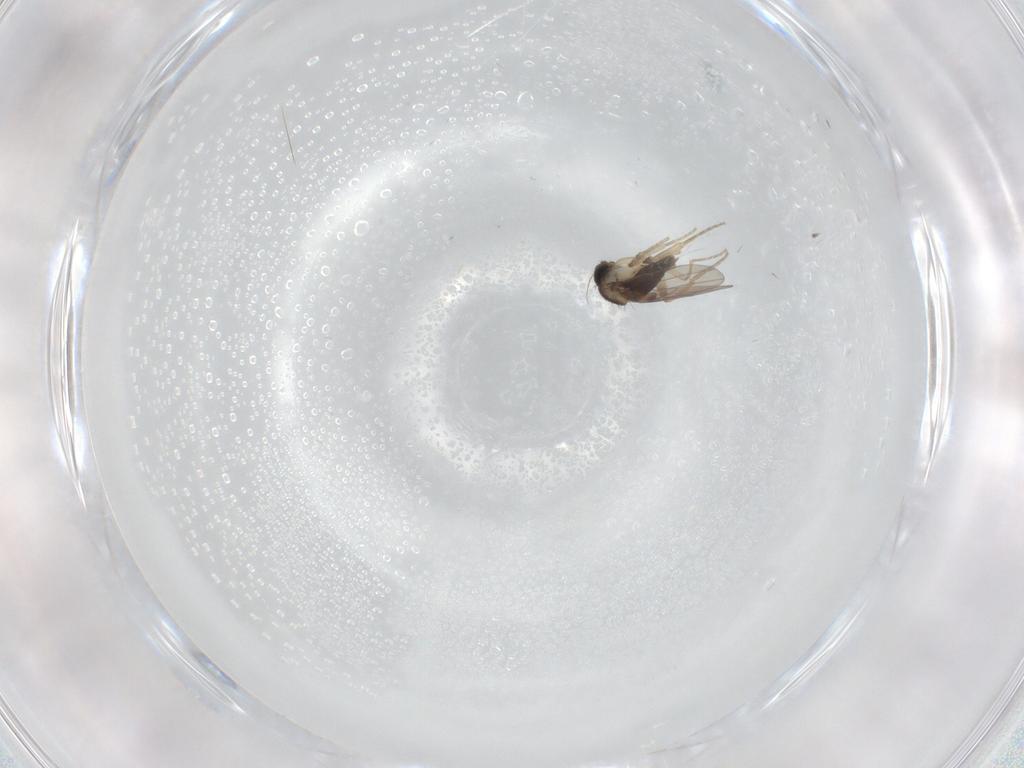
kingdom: Animalia
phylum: Arthropoda
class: Insecta
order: Diptera
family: Phoridae
